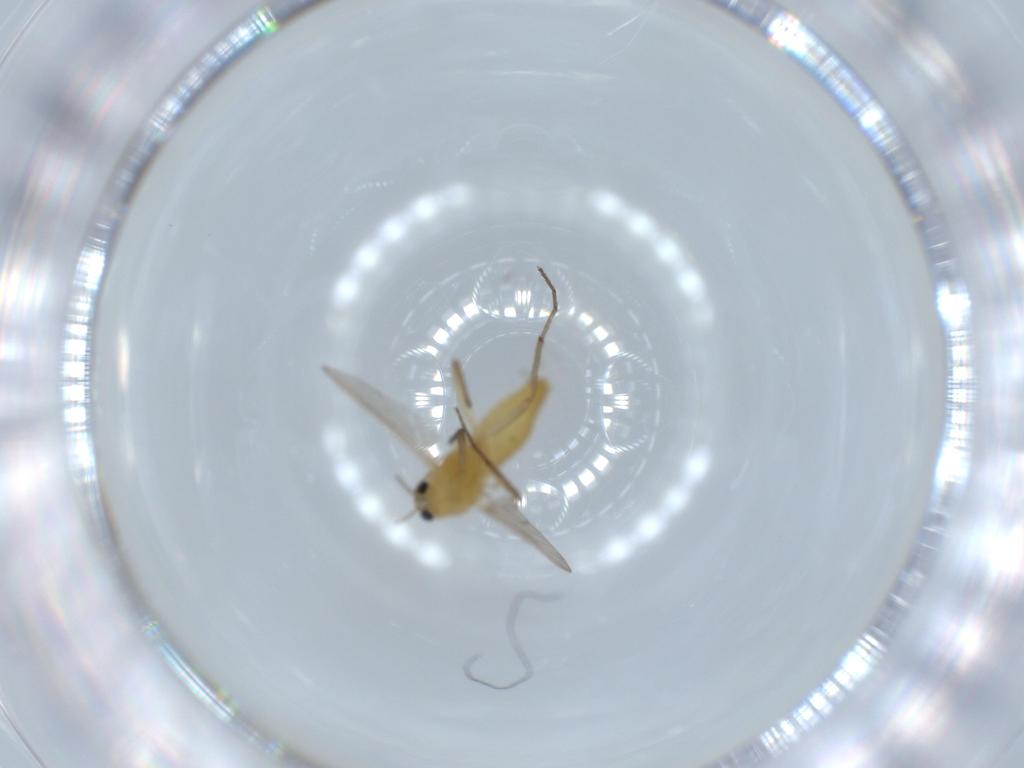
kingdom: Animalia
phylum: Arthropoda
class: Insecta
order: Diptera
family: Chironomidae
